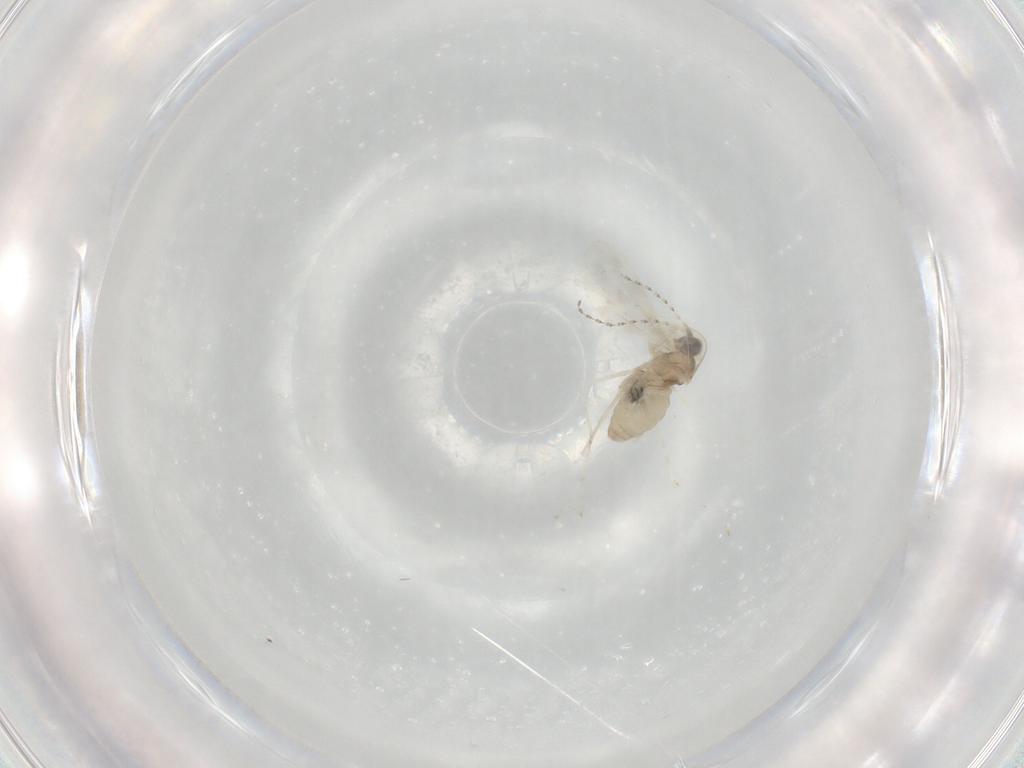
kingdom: Animalia
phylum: Arthropoda
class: Insecta
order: Diptera
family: Cecidomyiidae
